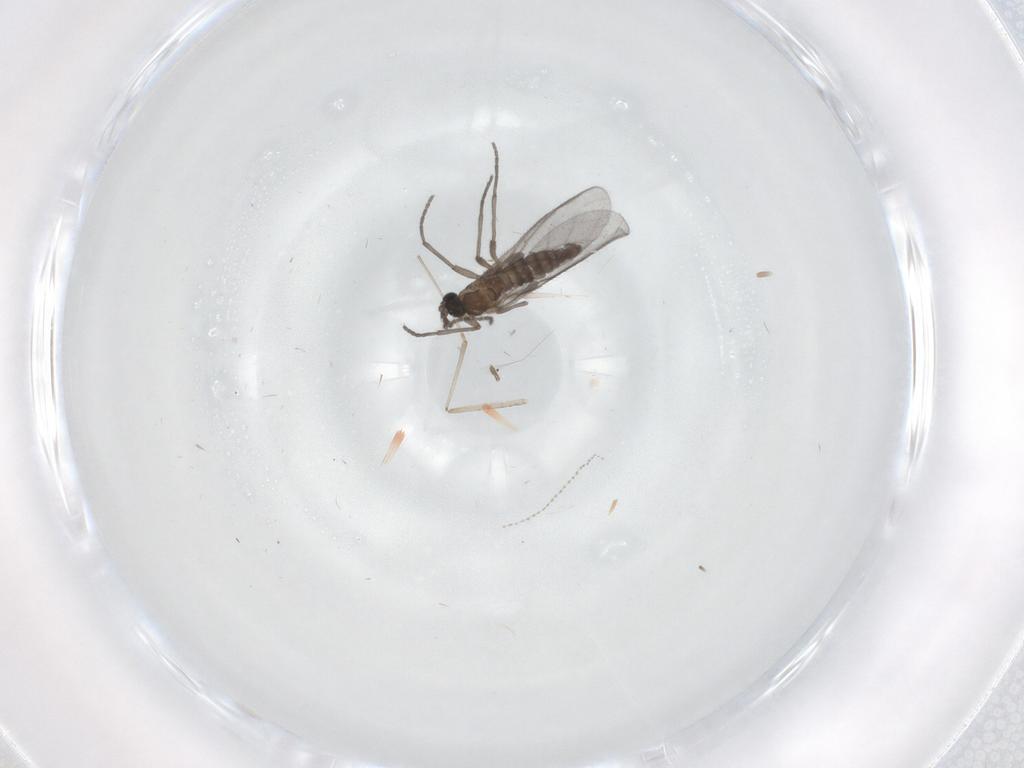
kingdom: Animalia
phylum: Arthropoda
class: Insecta
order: Diptera
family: Sciaridae
